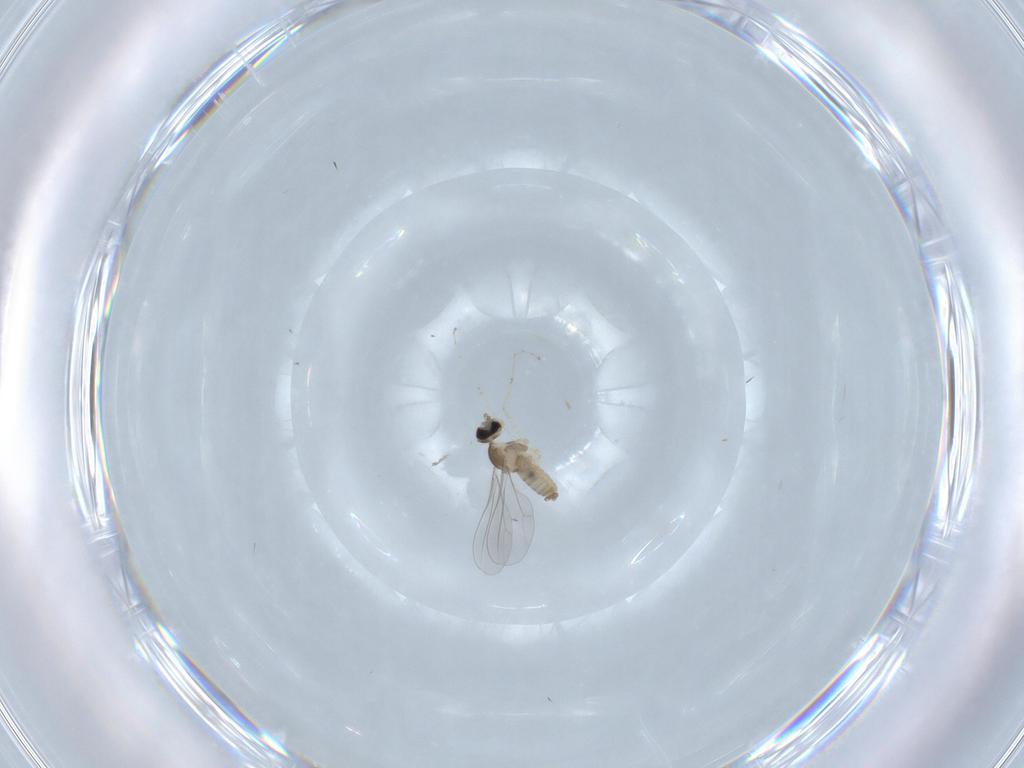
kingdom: Animalia
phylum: Arthropoda
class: Insecta
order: Diptera
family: Cecidomyiidae
